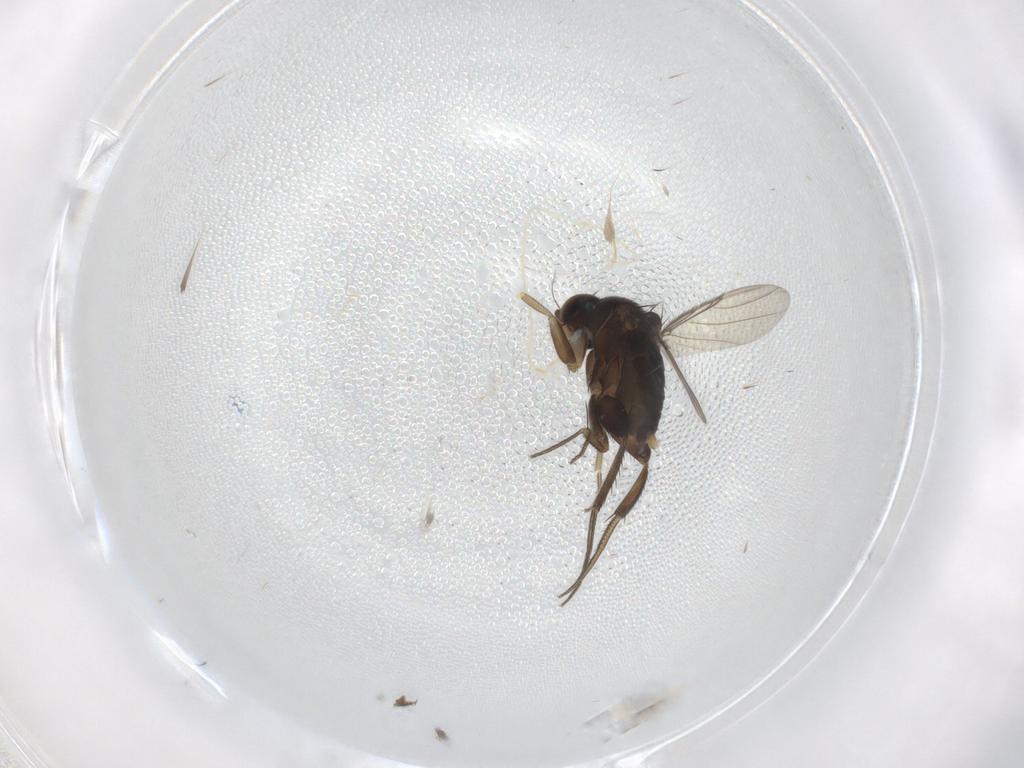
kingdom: Animalia
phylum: Arthropoda
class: Insecta
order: Diptera
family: Phoridae
